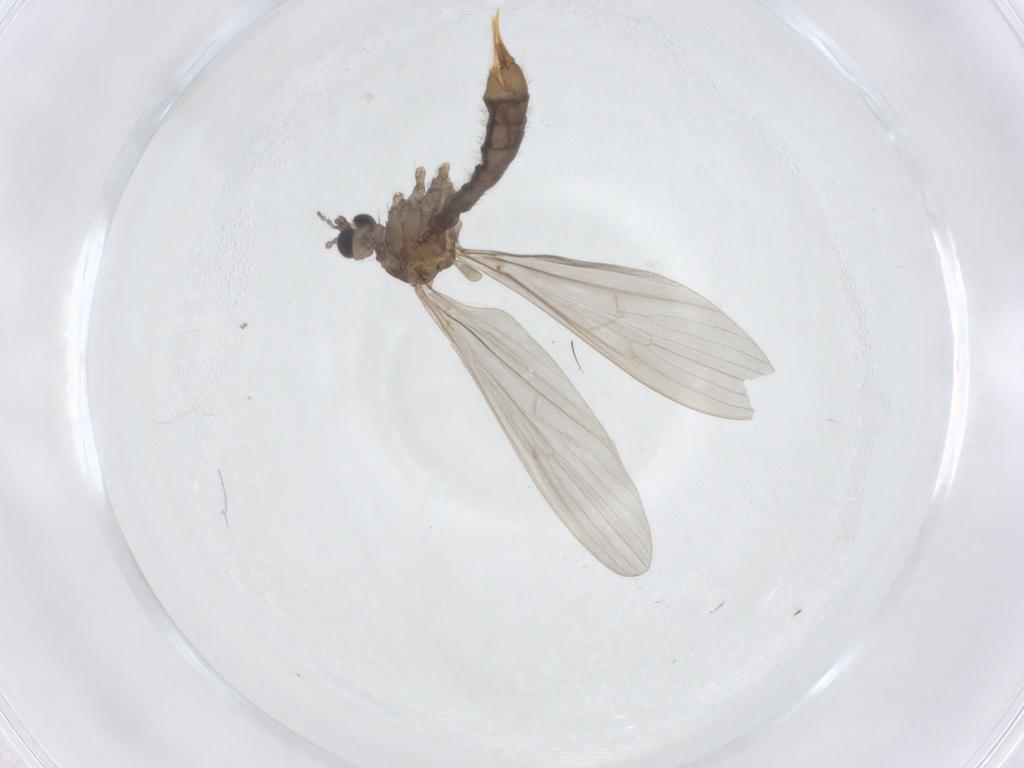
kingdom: Animalia
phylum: Arthropoda
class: Insecta
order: Diptera
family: Limoniidae
